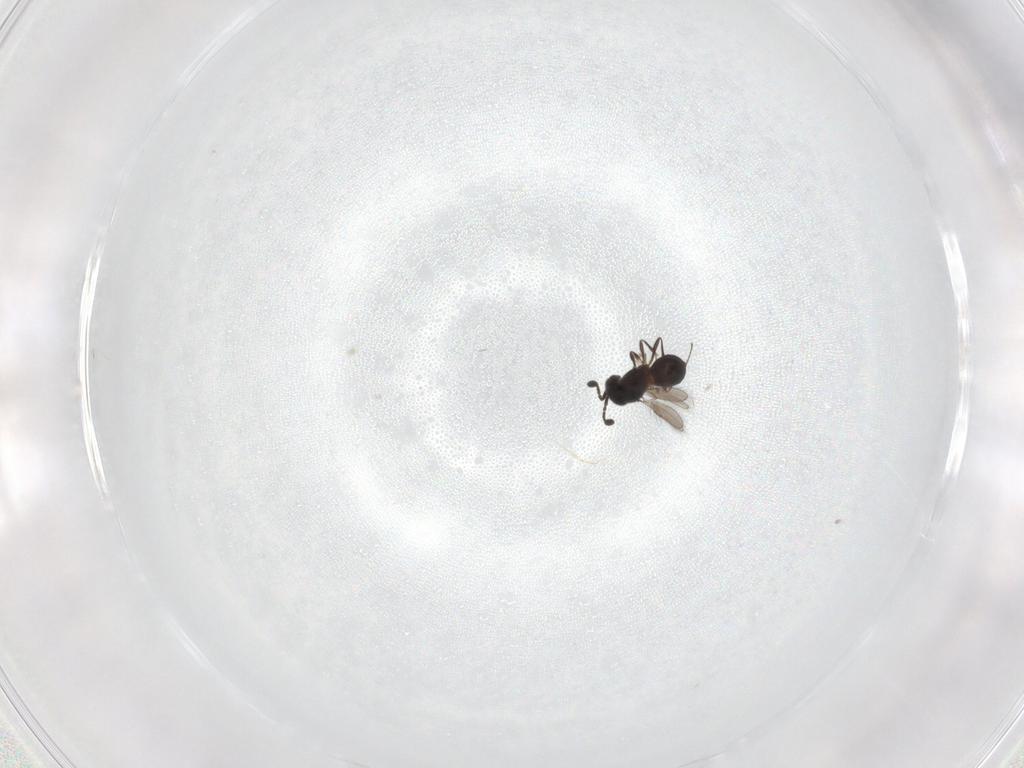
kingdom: Animalia
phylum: Arthropoda
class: Insecta
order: Hymenoptera
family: Scelionidae
